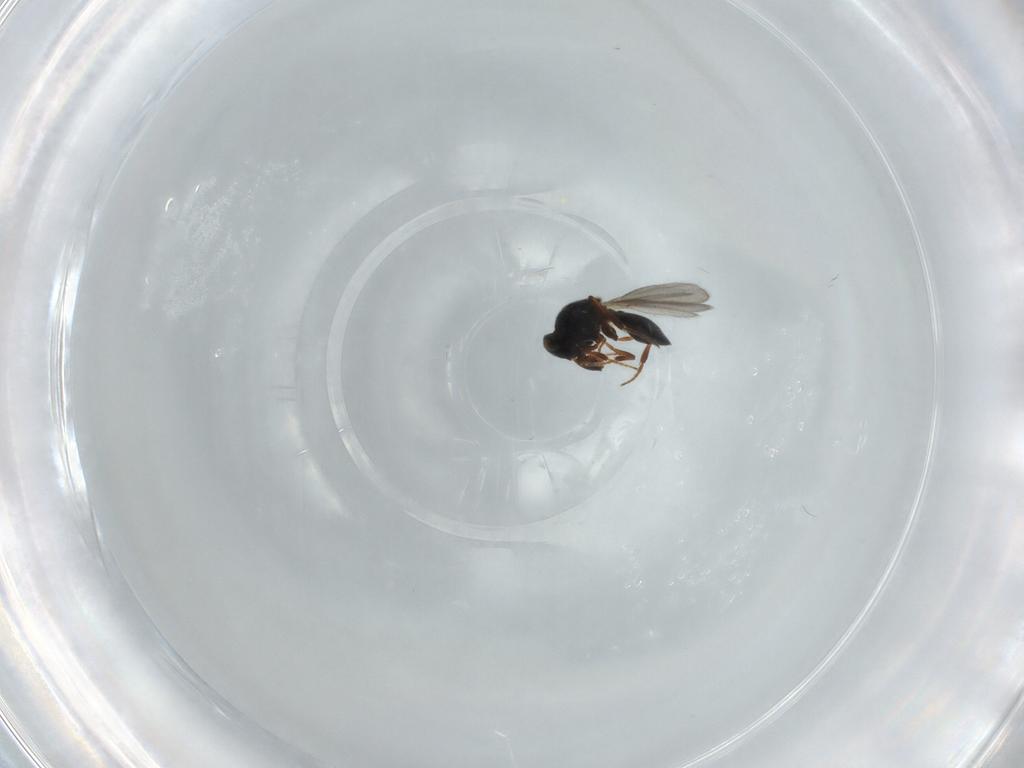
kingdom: Animalia
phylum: Arthropoda
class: Insecta
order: Hymenoptera
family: Platygastridae
